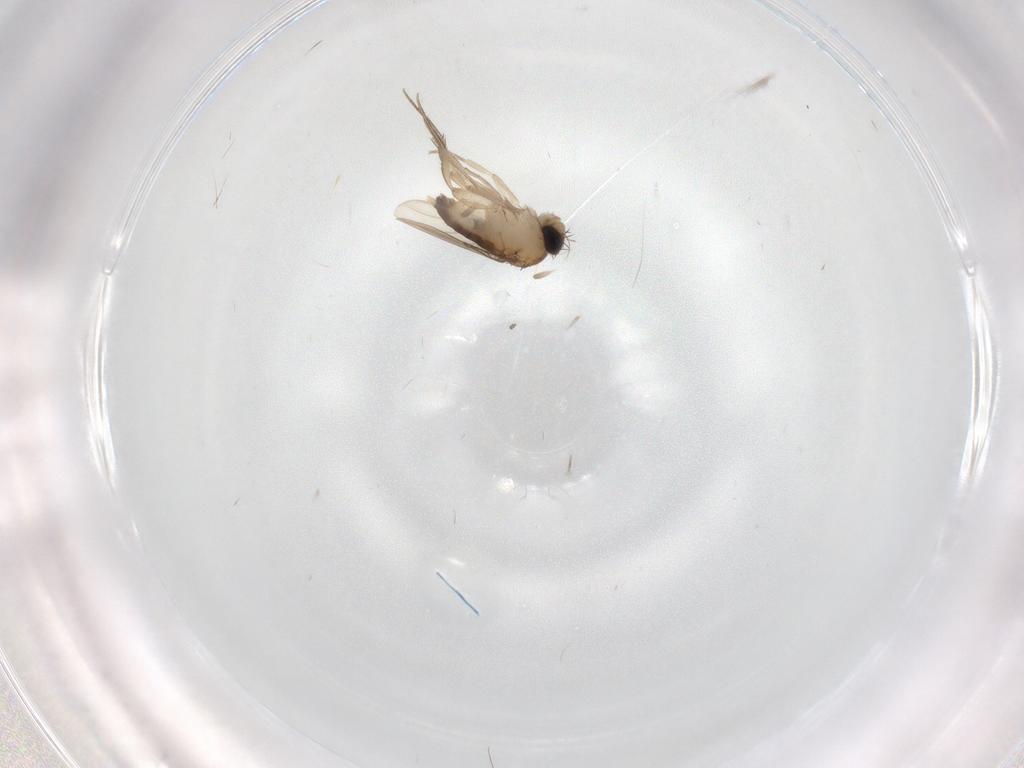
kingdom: Animalia
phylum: Arthropoda
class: Insecta
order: Diptera
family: Phoridae
